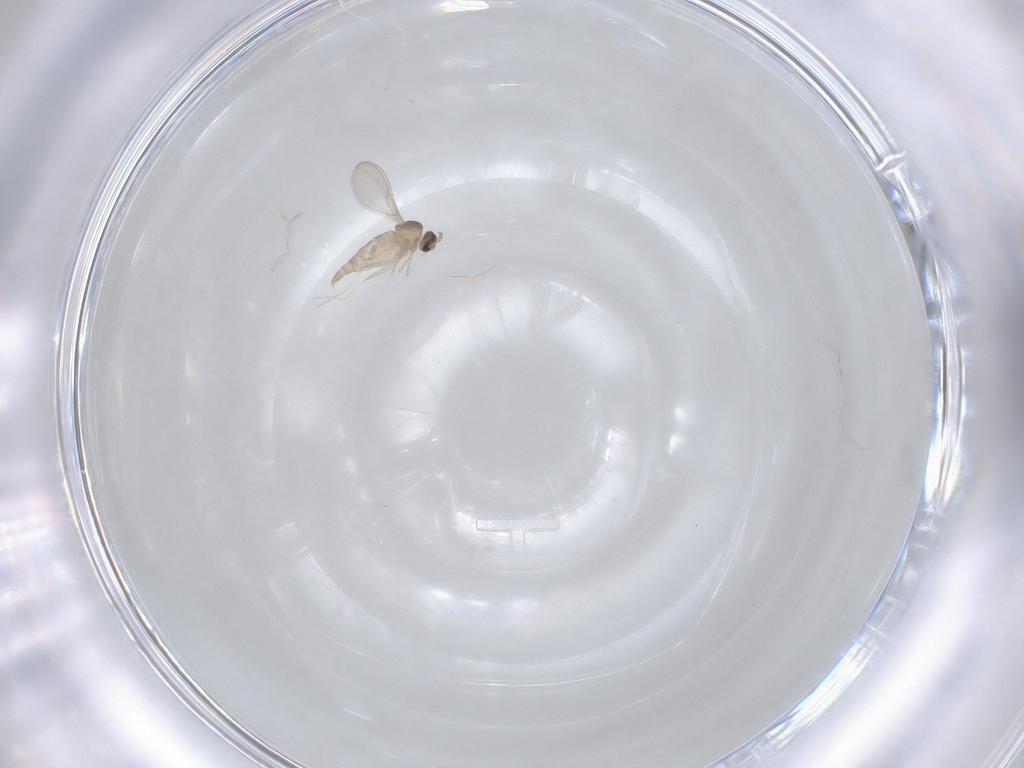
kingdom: Animalia
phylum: Arthropoda
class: Insecta
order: Diptera
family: Cecidomyiidae
